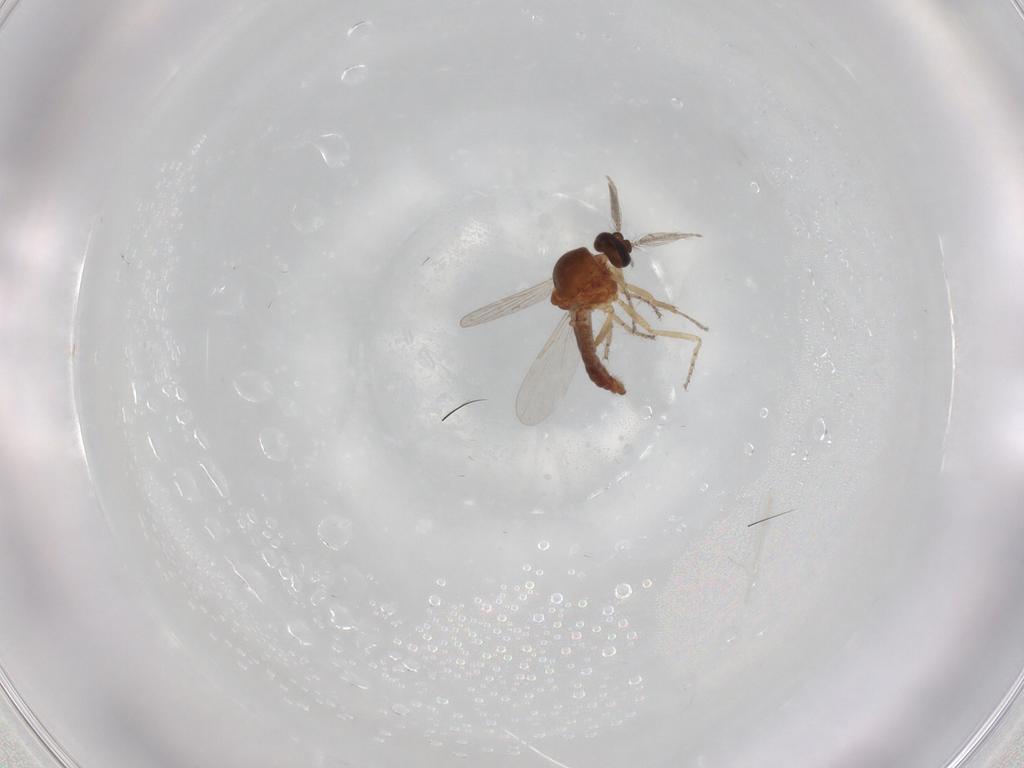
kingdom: Animalia
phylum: Arthropoda
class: Insecta
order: Diptera
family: Ceratopogonidae
